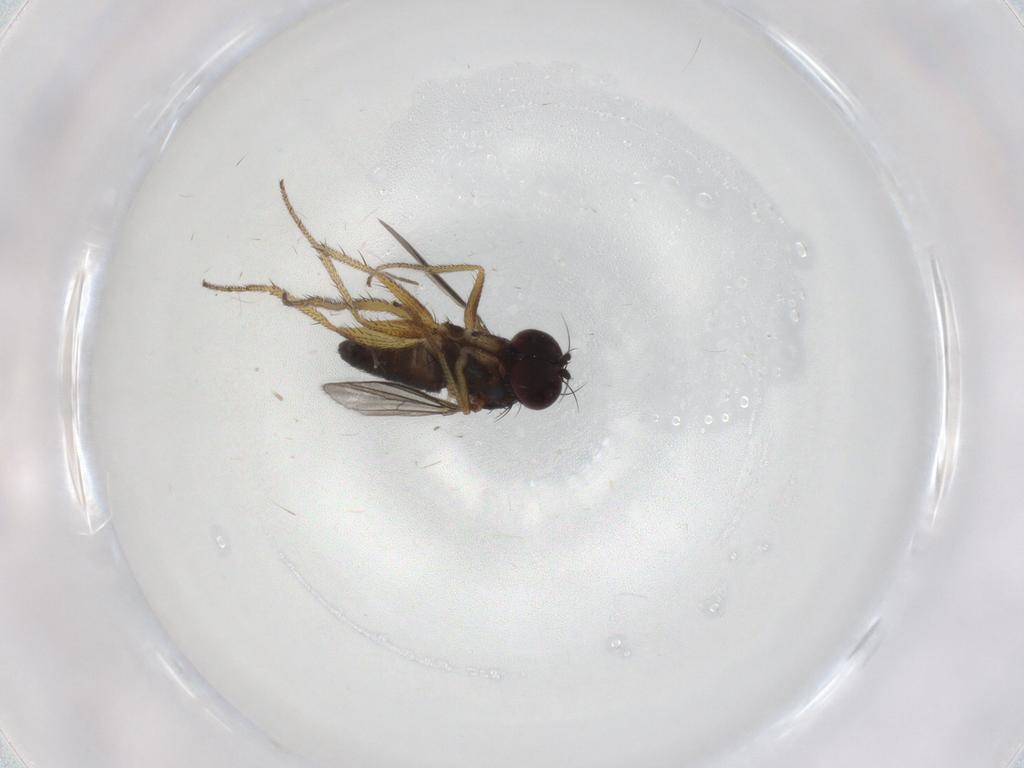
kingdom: Animalia
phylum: Arthropoda
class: Insecta
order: Diptera
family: Dolichopodidae
